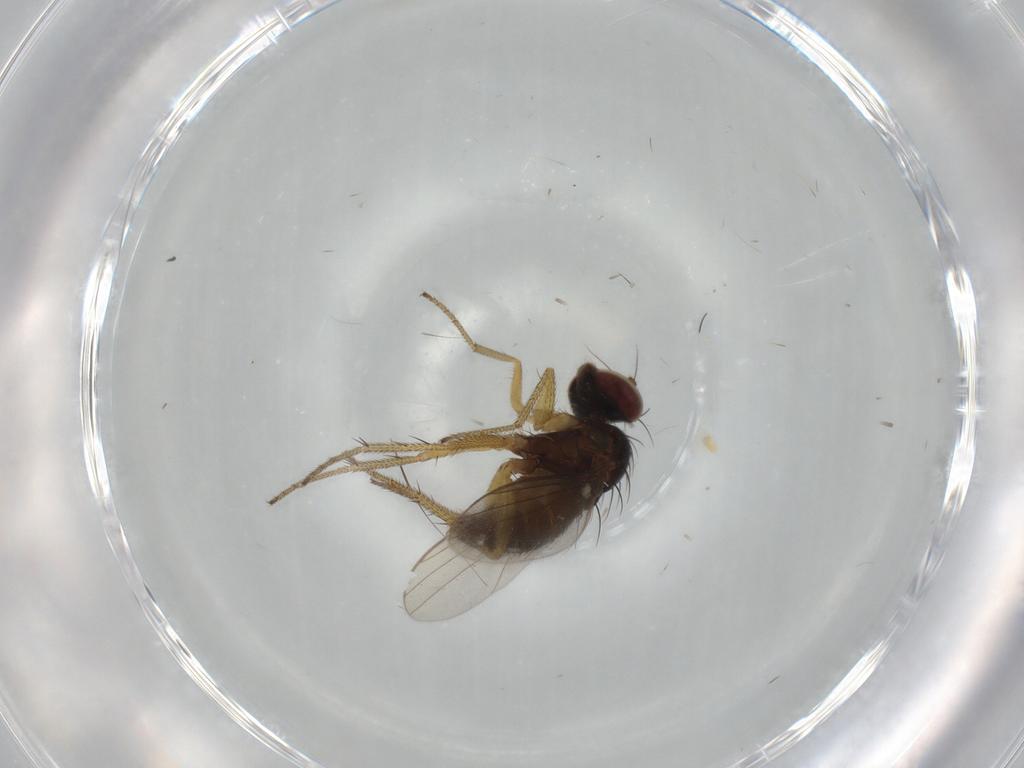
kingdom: Animalia
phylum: Arthropoda
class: Insecta
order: Diptera
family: Dolichopodidae
